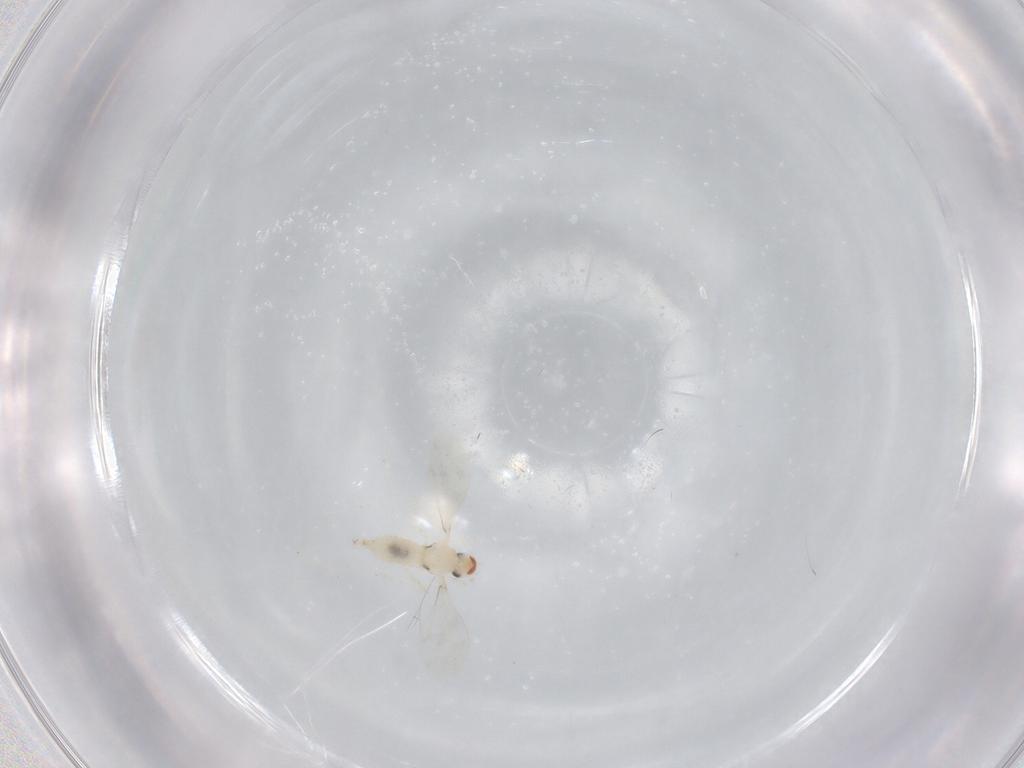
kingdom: Animalia
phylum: Arthropoda
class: Insecta
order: Diptera
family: Cecidomyiidae
